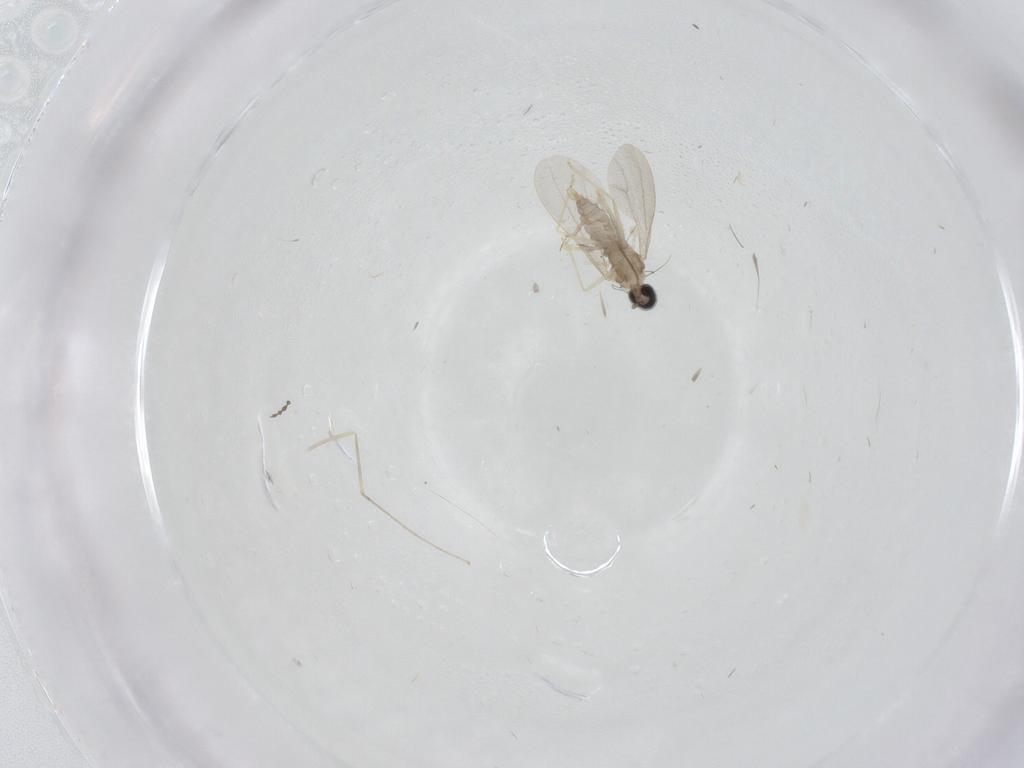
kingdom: Animalia
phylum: Arthropoda
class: Insecta
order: Diptera
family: Cecidomyiidae
